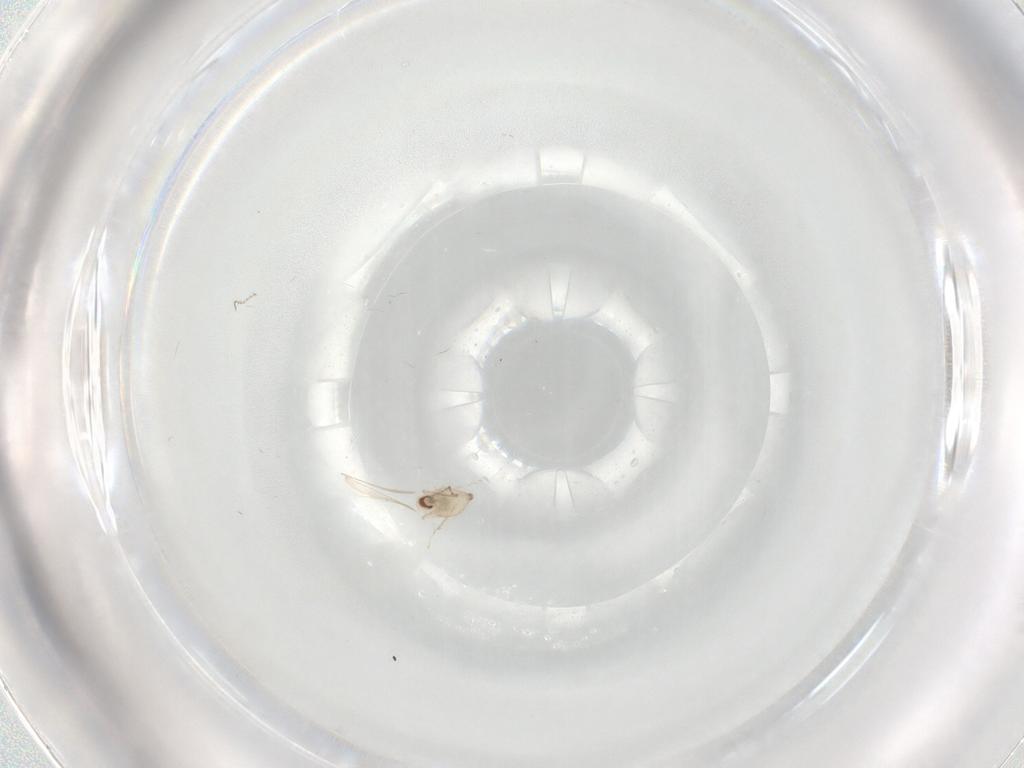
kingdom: Animalia
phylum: Arthropoda
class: Insecta
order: Diptera
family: Cecidomyiidae
